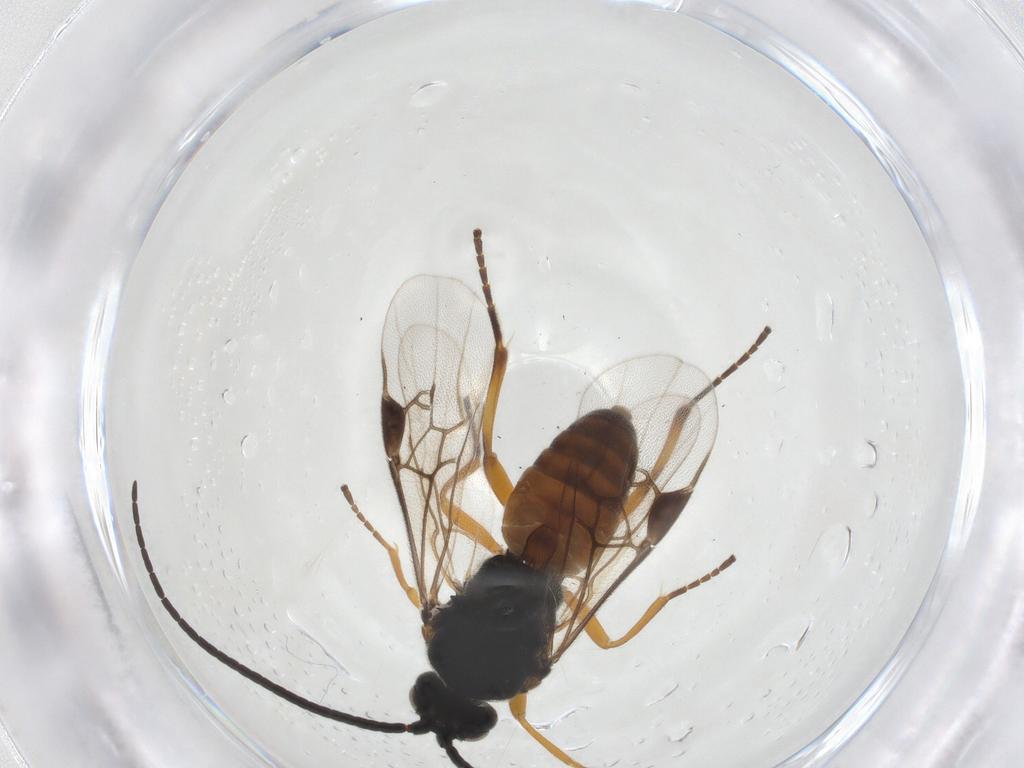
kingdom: Animalia
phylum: Arthropoda
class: Insecta
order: Hymenoptera
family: Braconidae
